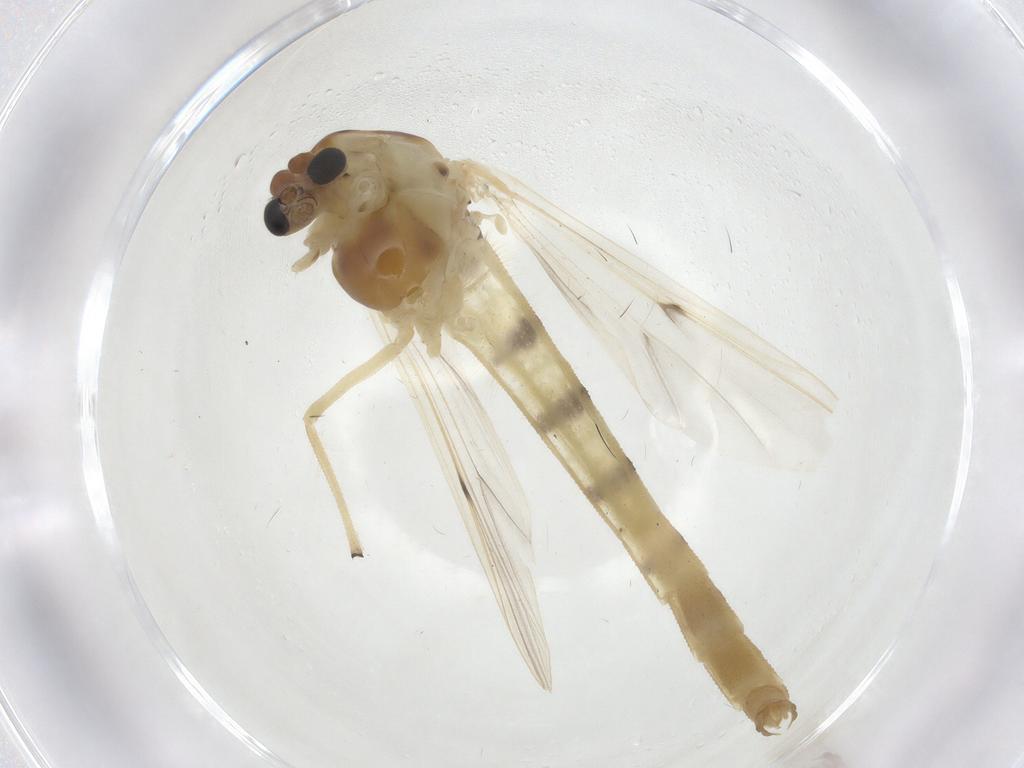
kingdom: Animalia
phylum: Arthropoda
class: Insecta
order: Diptera
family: Chironomidae
